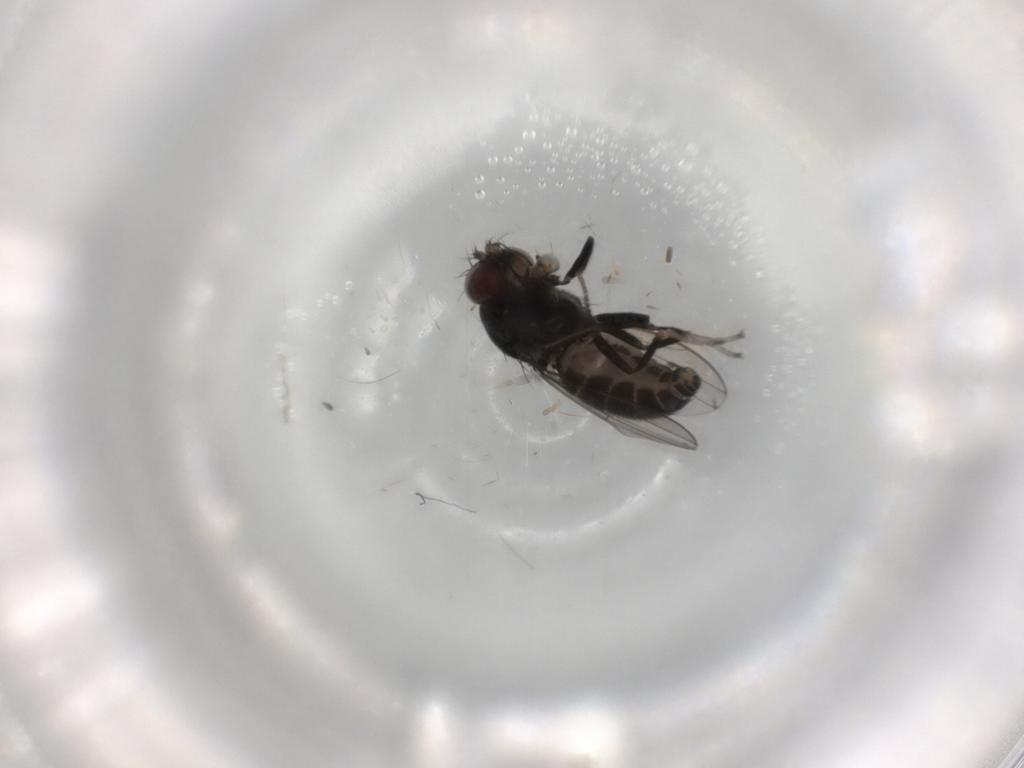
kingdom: Animalia
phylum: Arthropoda
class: Insecta
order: Diptera
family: Ephydridae
